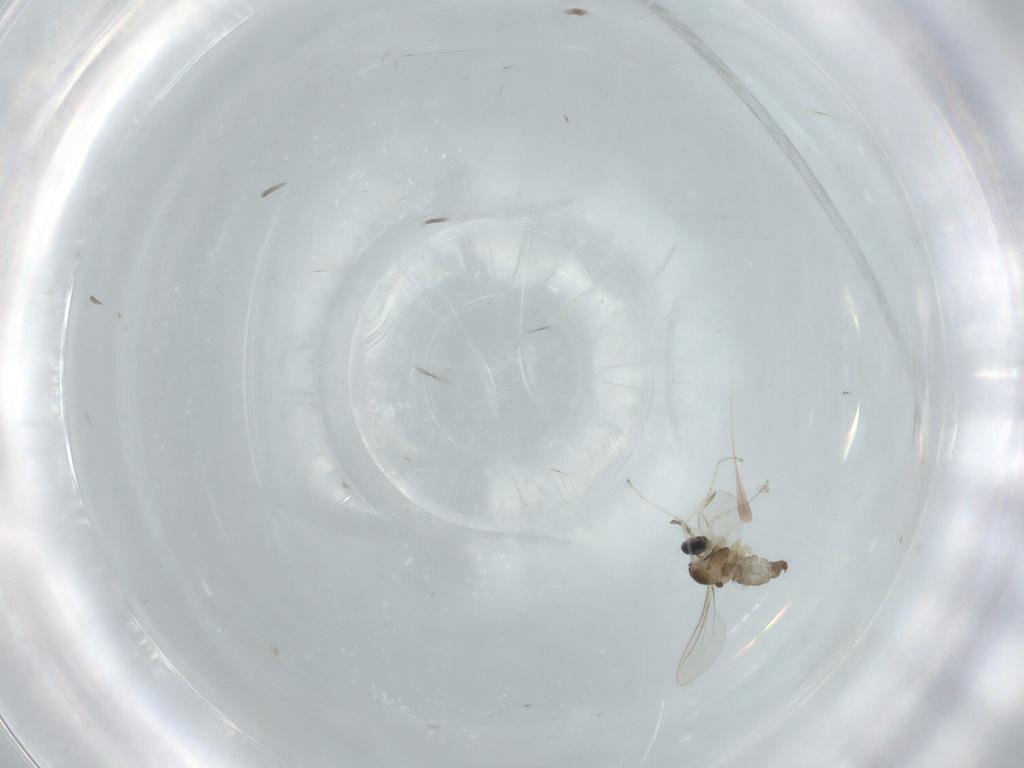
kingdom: Animalia
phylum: Arthropoda
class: Insecta
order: Diptera
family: Cecidomyiidae
